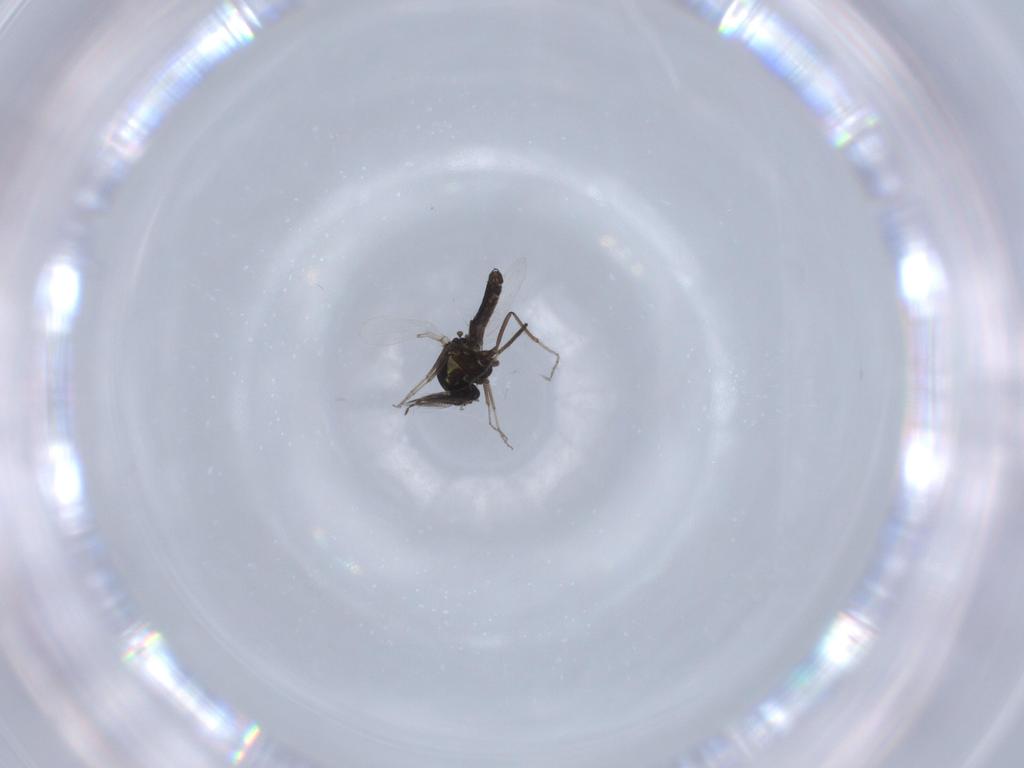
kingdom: Animalia
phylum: Arthropoda
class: Insecta
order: Diptera
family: Ceratopogonidae
